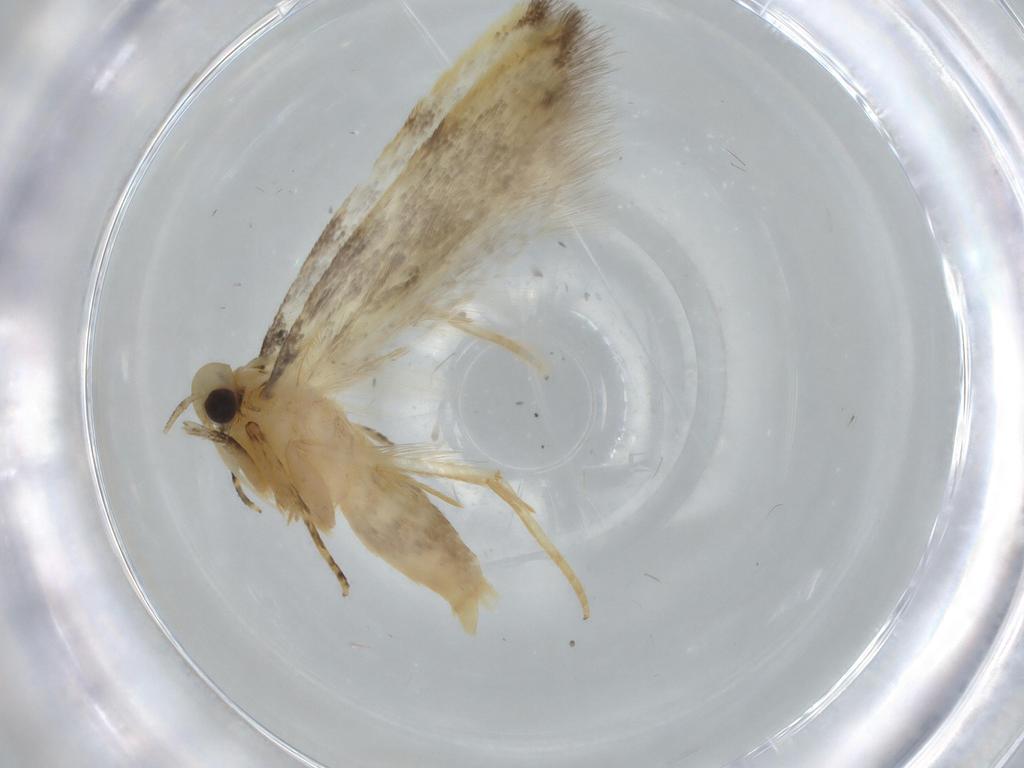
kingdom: Animalia
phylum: Arthropoda
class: Insecta
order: Lepidoptera
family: Autostichidae
